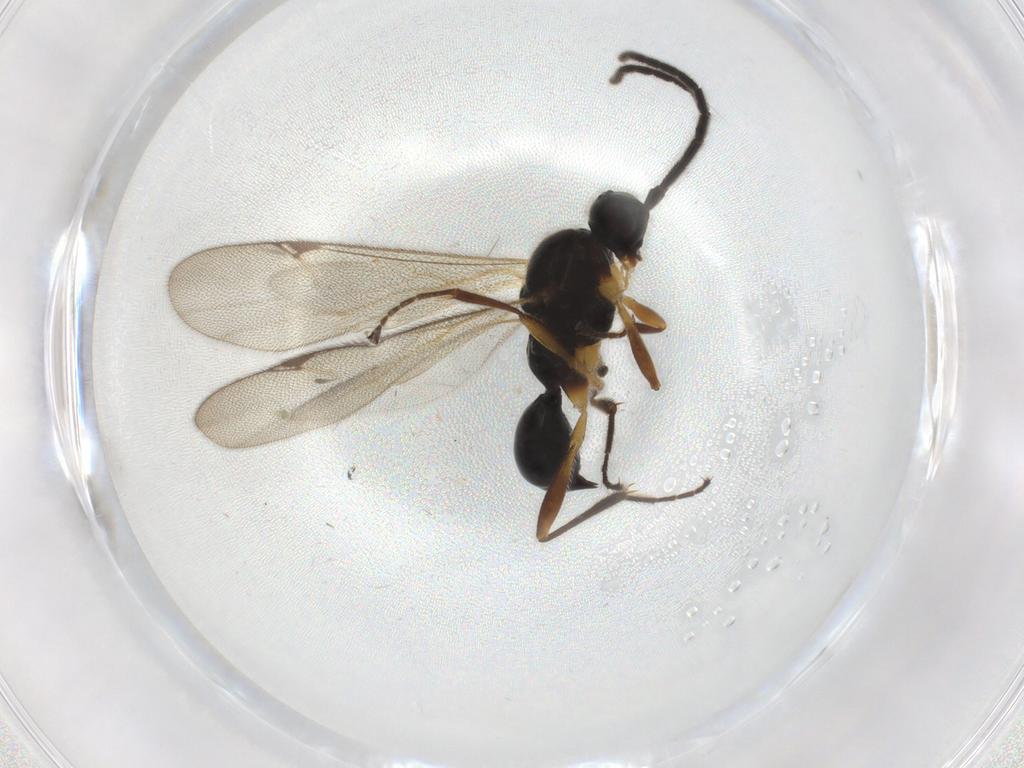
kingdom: Animalia
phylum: Arthropoda
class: Insecta
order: Hymenoptera
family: Proctotrupidae
